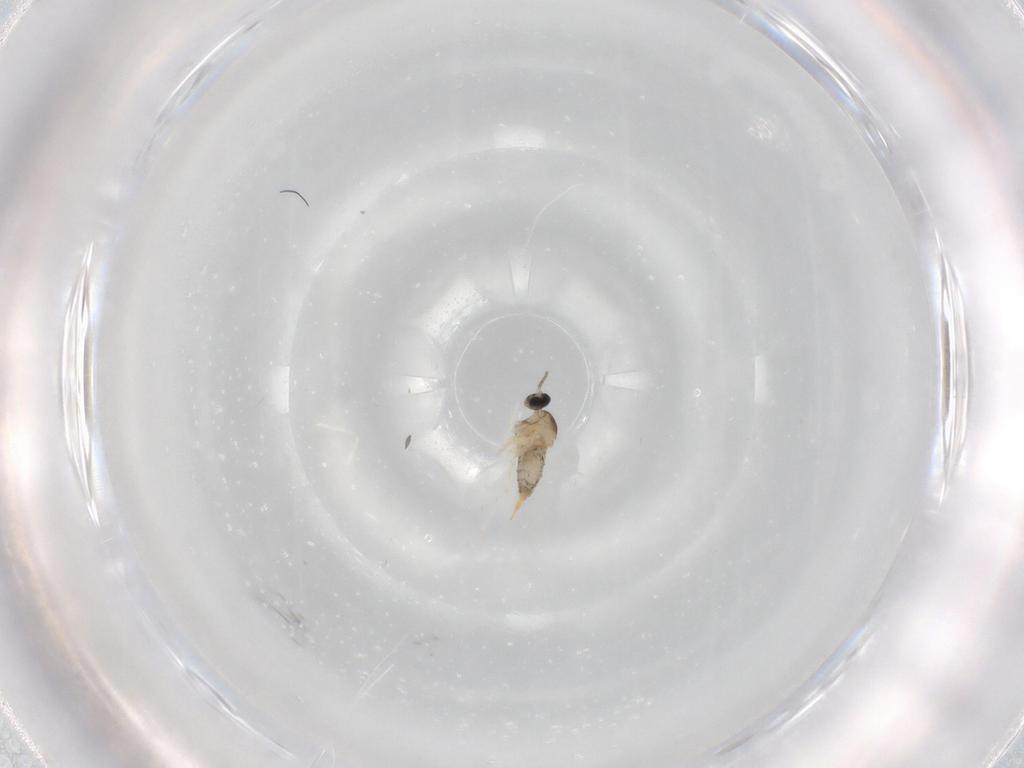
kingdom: Animalia
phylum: Arthropoda
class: Insecta
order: Diptera
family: Cecidomyiidae
